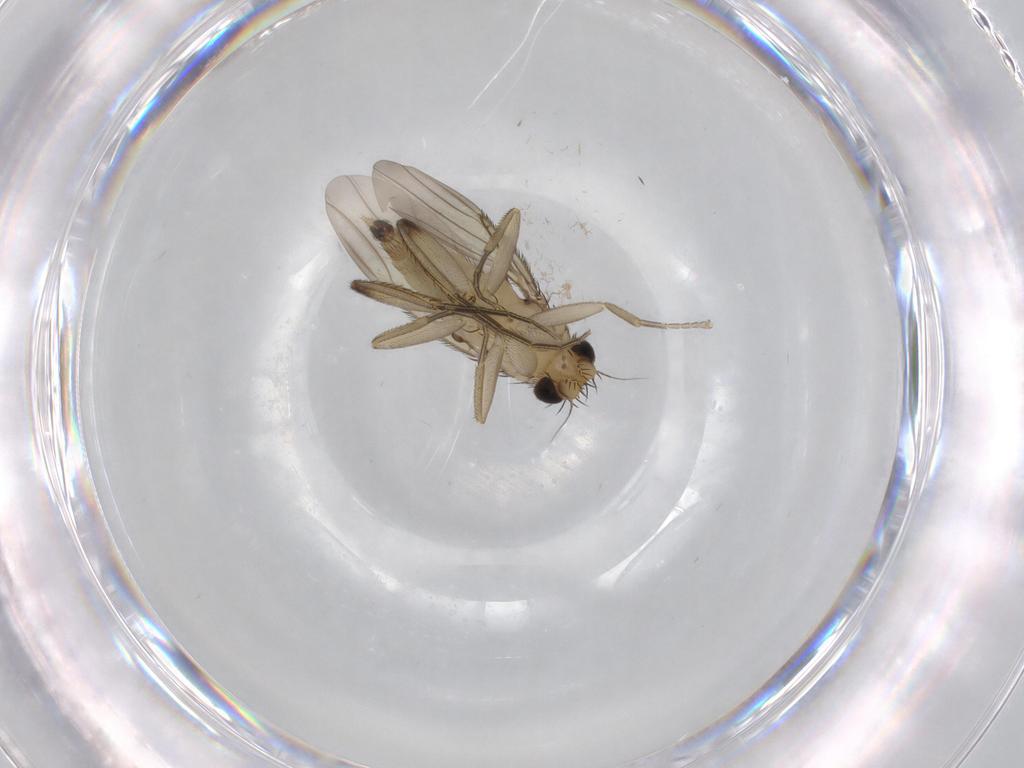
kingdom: Animalia
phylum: Arthropoda
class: Insecta
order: Diptera
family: Phoridae
